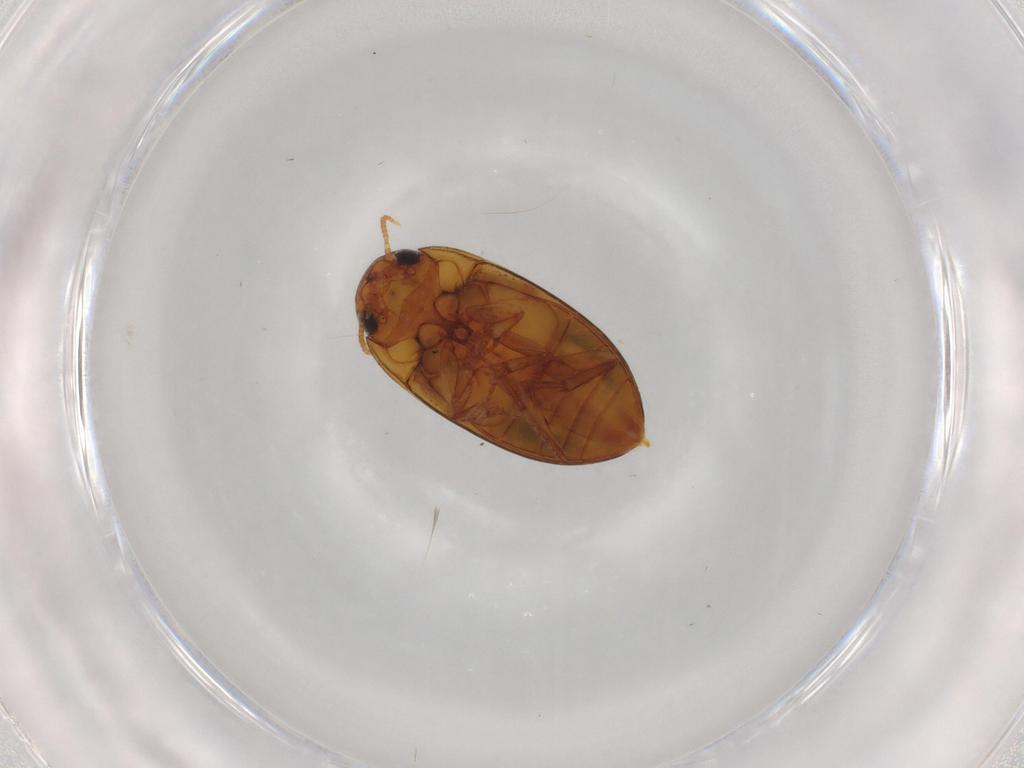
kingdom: Animalia
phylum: Arthropoda
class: Insecta
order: Coleoptera
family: Noteridae
